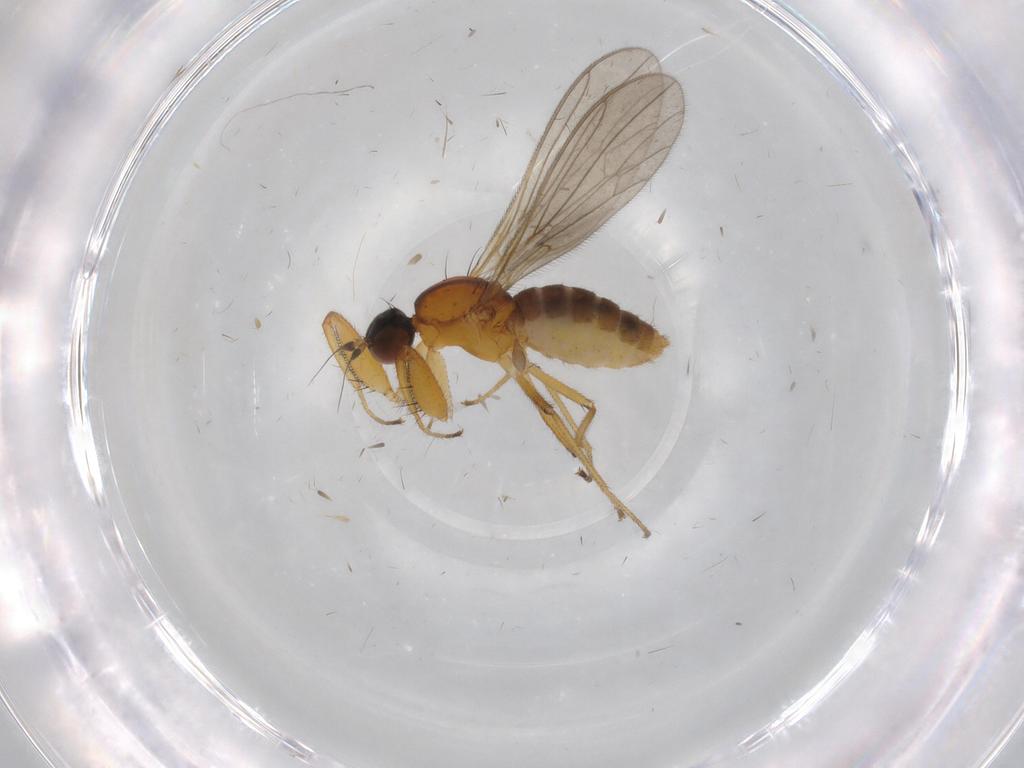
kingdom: Animalia
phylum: Arthropoda
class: Insecta
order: Diptera
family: Empididae
